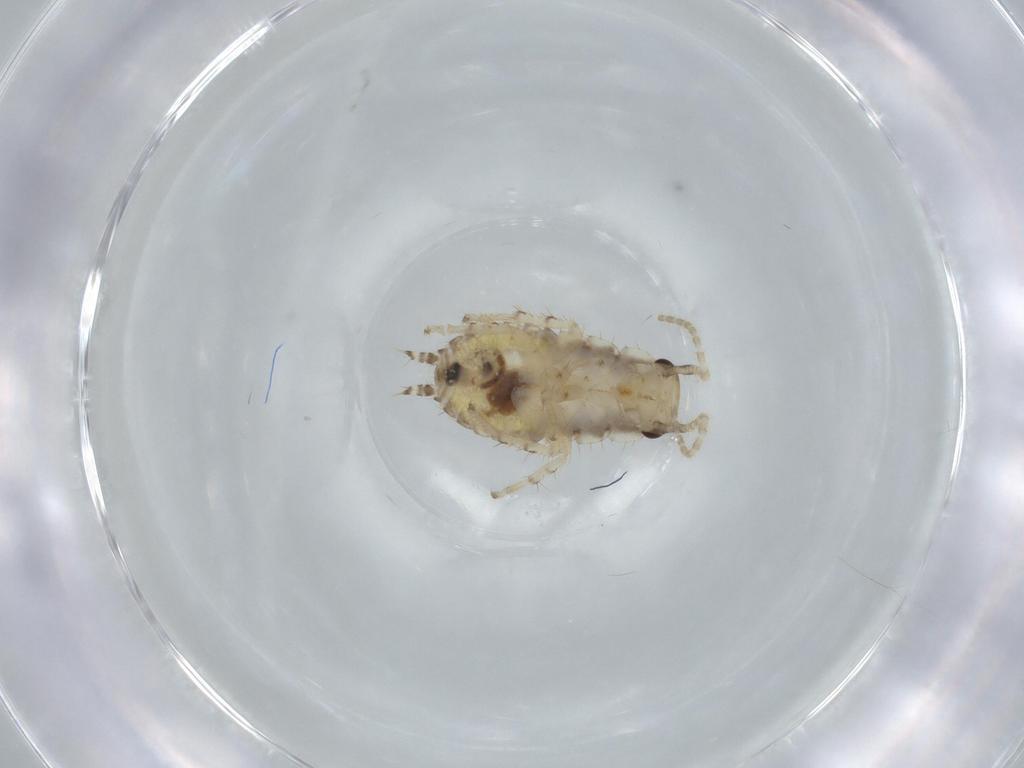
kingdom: Animalia
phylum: Arthropoda
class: Insecta
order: Blattodea
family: Ectobiidae
